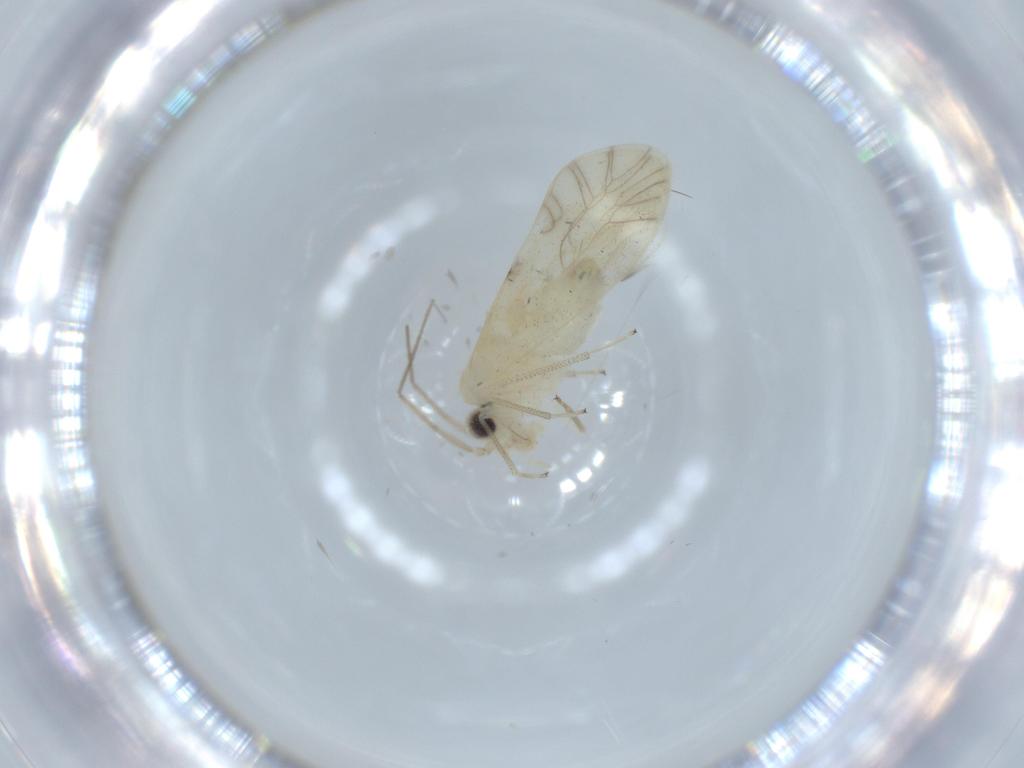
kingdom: Animalia
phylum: Arthropoda
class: Insecta
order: Psocodea
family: Caeciliusidae
